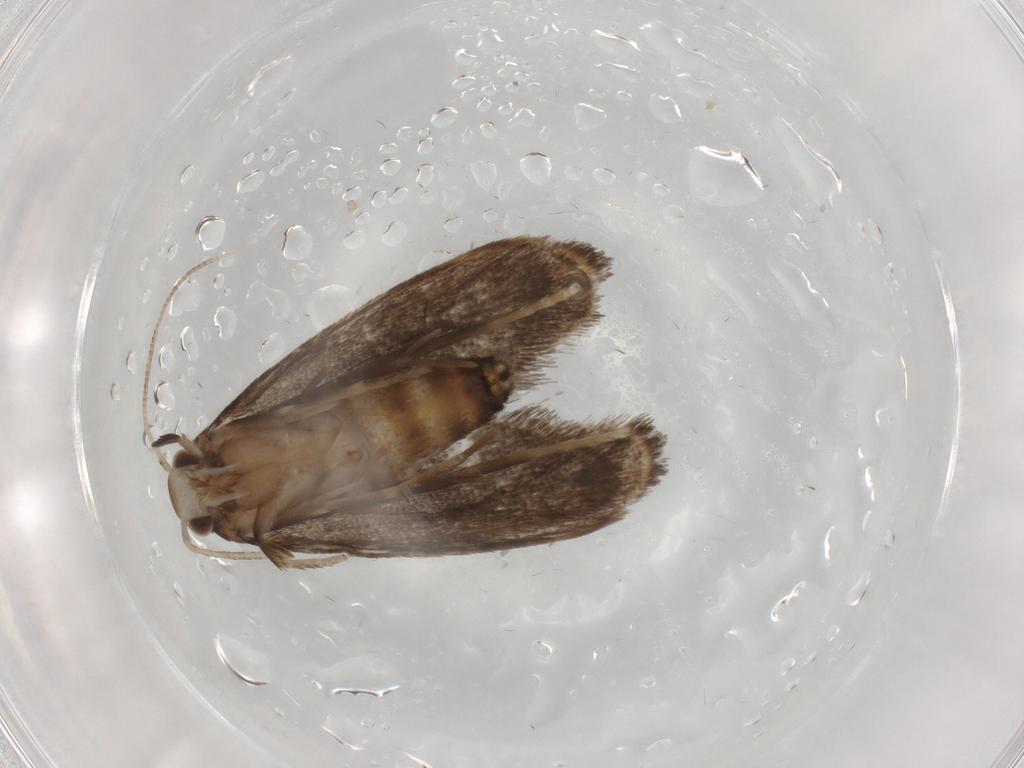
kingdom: Animalia
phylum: Arthropoda
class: Insecta
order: Lepidoptera
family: Dryadaulidae
